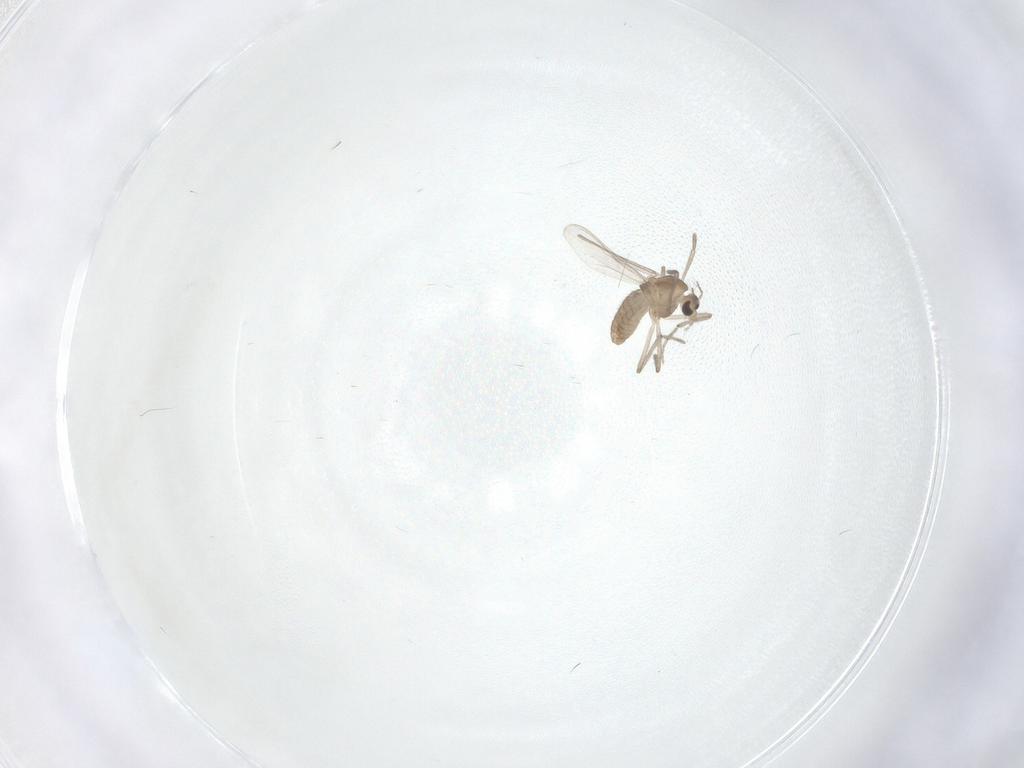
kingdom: Animalia
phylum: Arthropoda
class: Insecta
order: Diptera
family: Chironomidae
